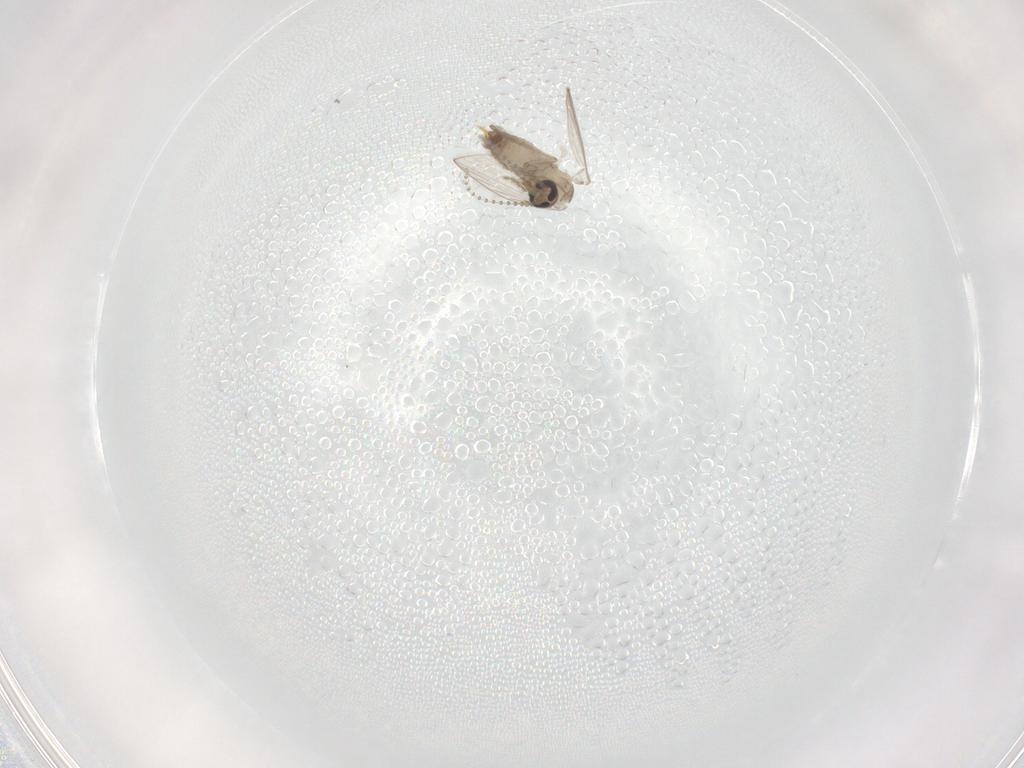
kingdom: Animalia
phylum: Arthropoda
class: Insecta
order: Diptera
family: Psychodidae
